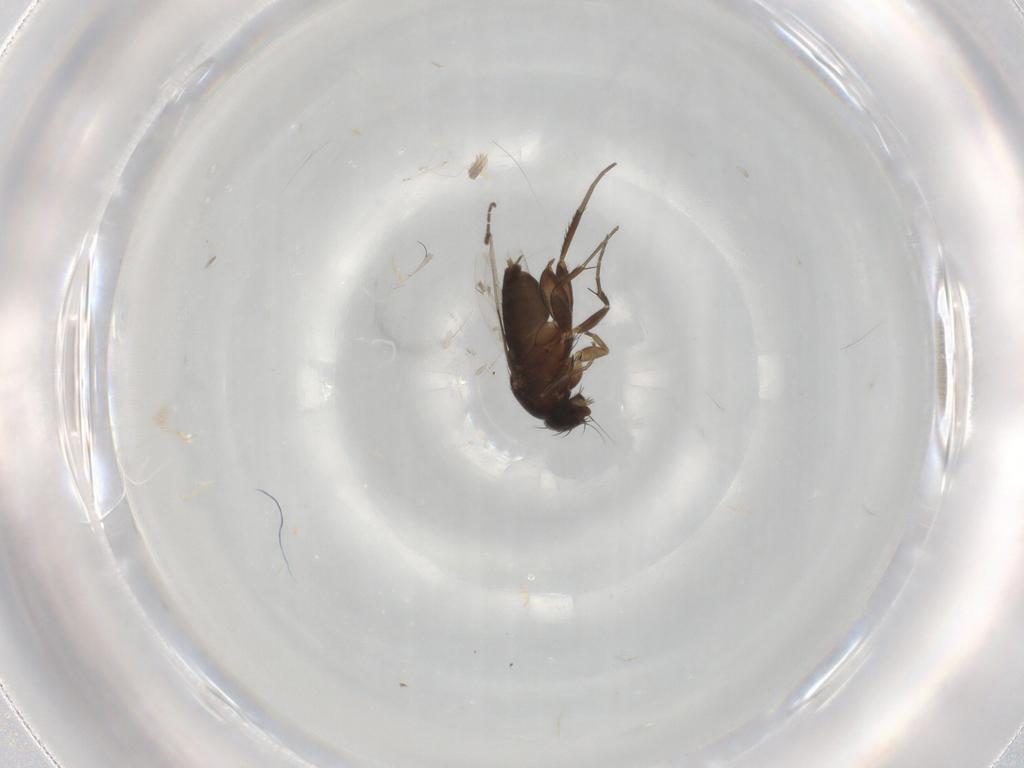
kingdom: Animalia
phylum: Arthropoda
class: Insecta
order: Diptera
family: Phoridae
